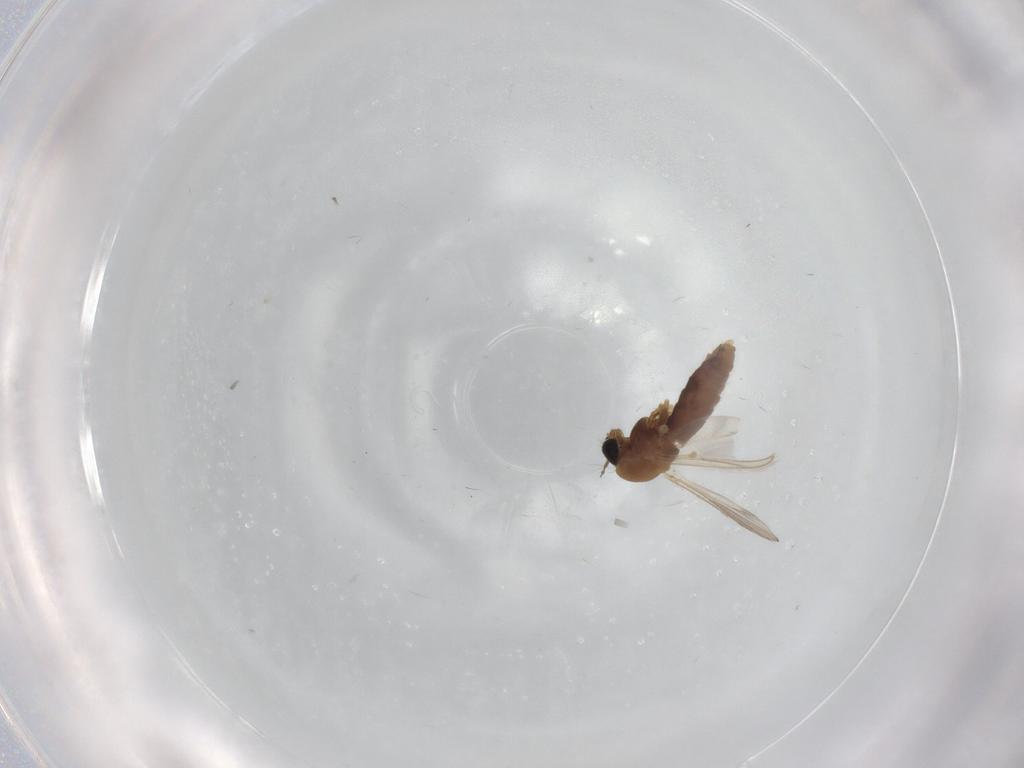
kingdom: Animalia
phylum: Arthropoda
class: Insecta
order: Diptera
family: Chironomidae
